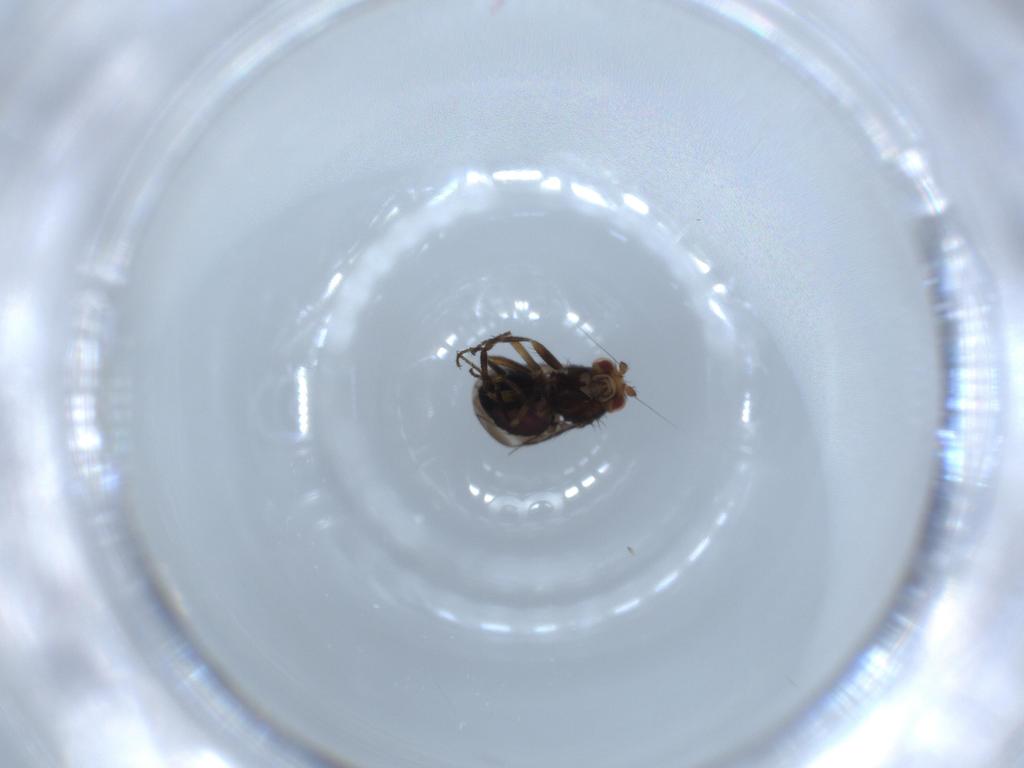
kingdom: Animalia
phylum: Arthropoda
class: Insecta
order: Diptera
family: Limoniidae
